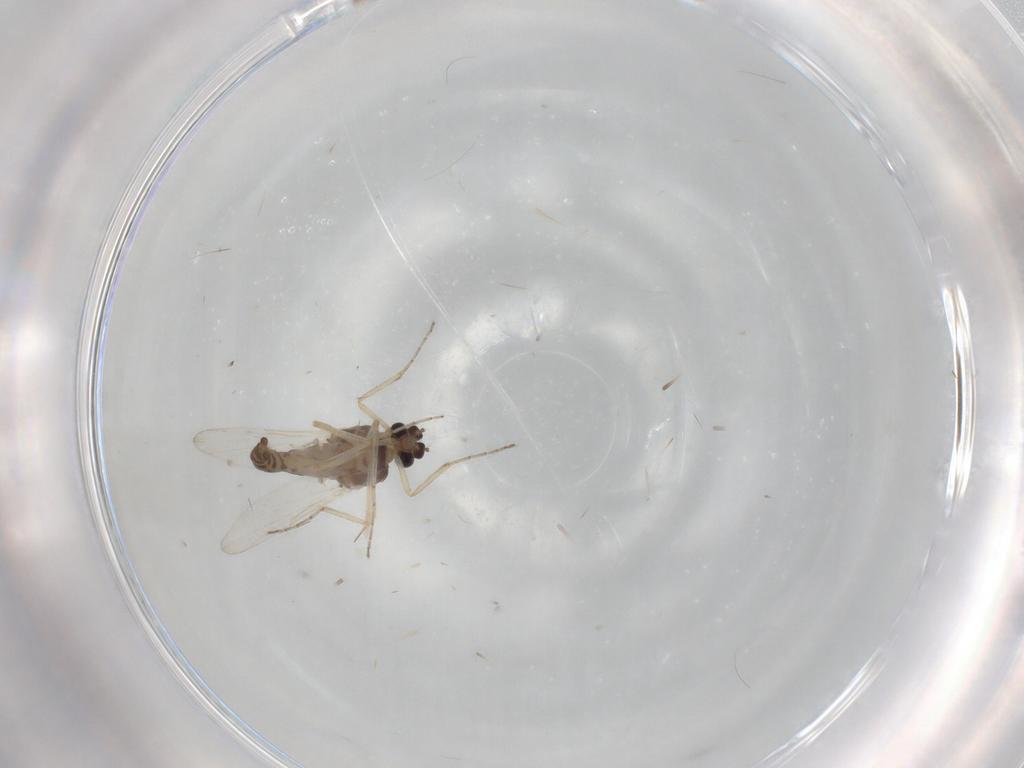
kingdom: Animalia
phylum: Arthropoda
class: Insecta
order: Diptera
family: Ceratopogonidae
